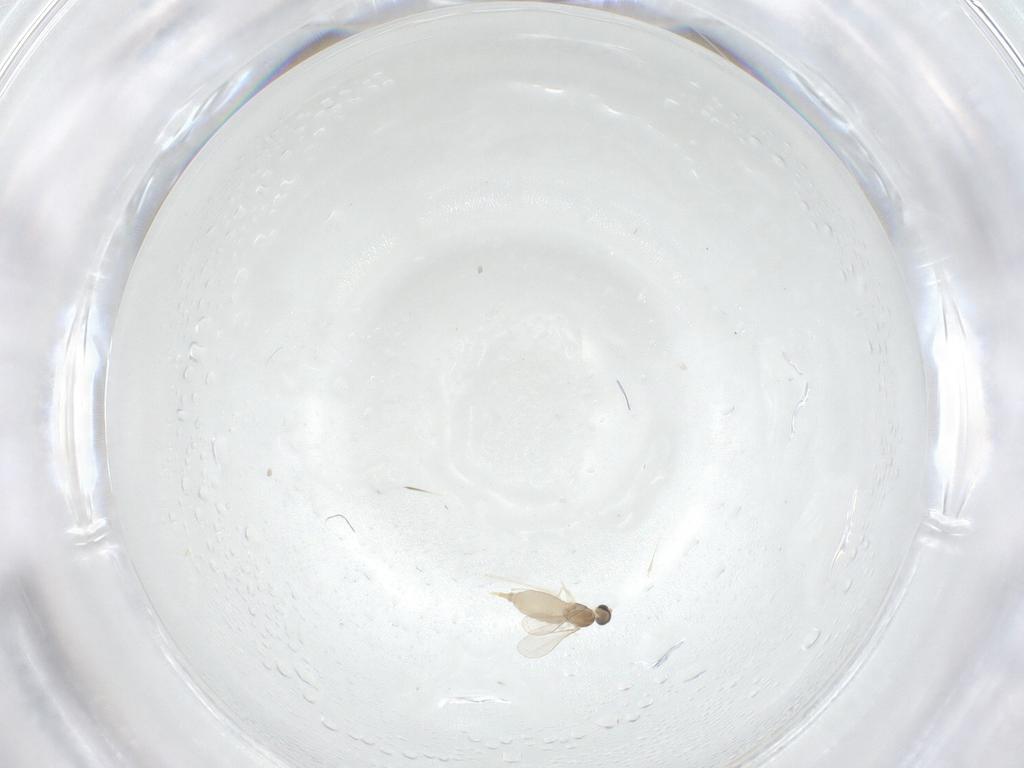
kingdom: Animalia
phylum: Arthropoda
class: Insecta
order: Diptera
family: Cecidomyiidae
